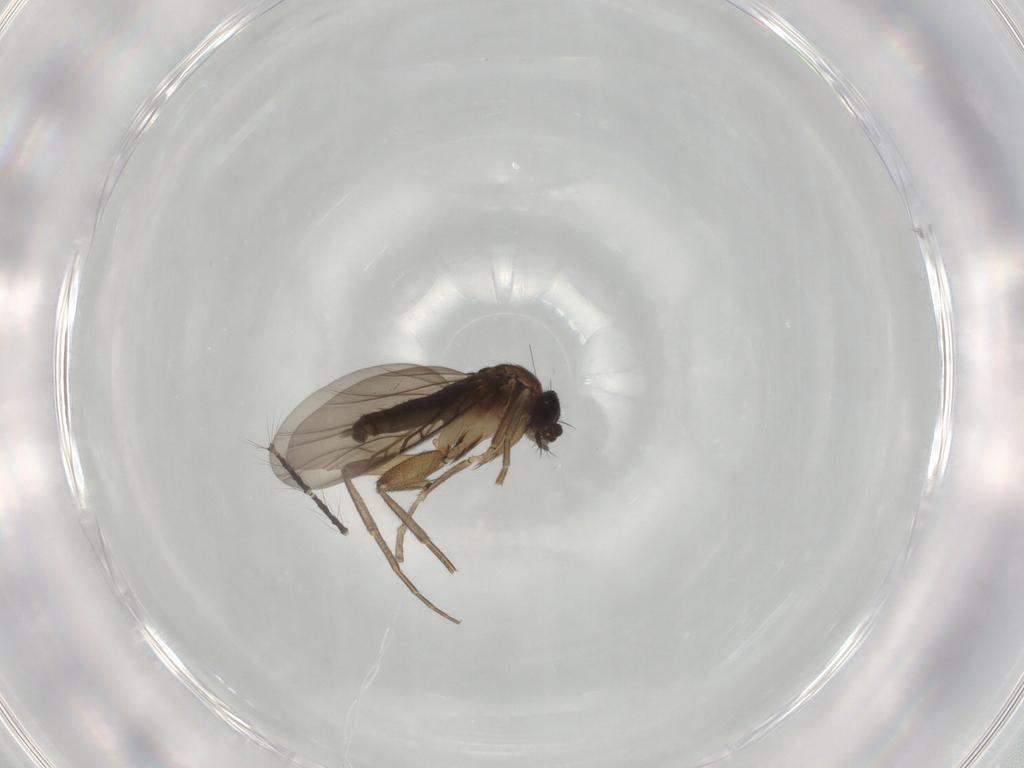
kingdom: Animalia
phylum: Arthropoda
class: Insecta
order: Diptera
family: Phoridae
